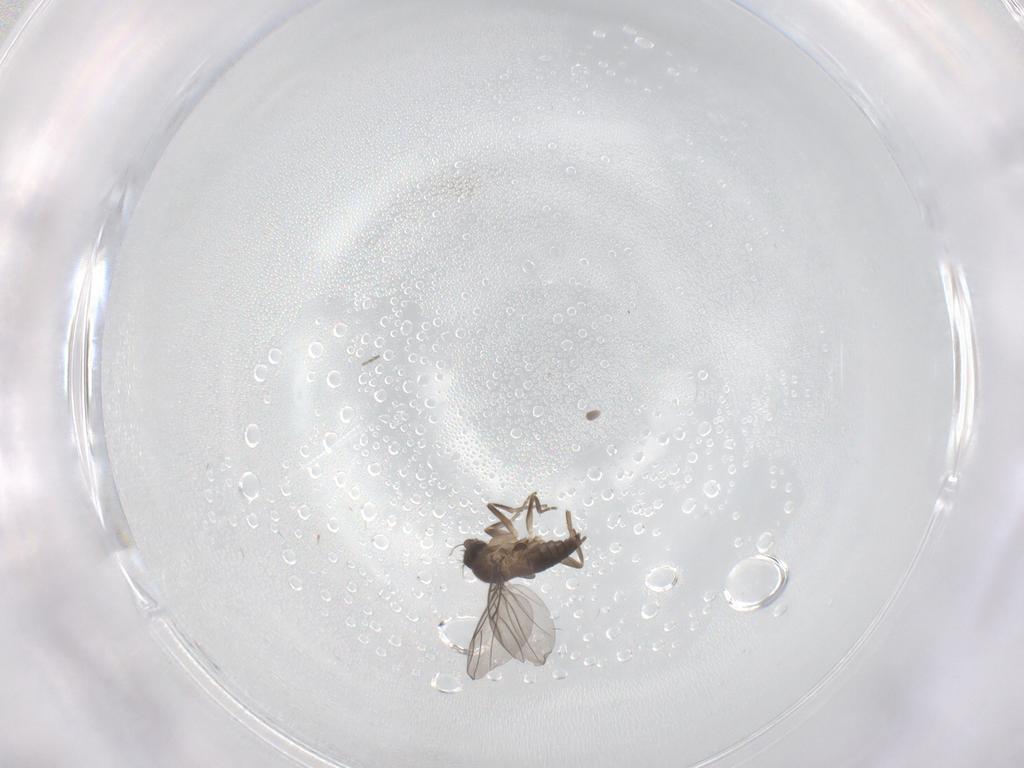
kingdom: Animalia
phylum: Arthropoda
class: Insecta
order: Diptera
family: Phoridae
